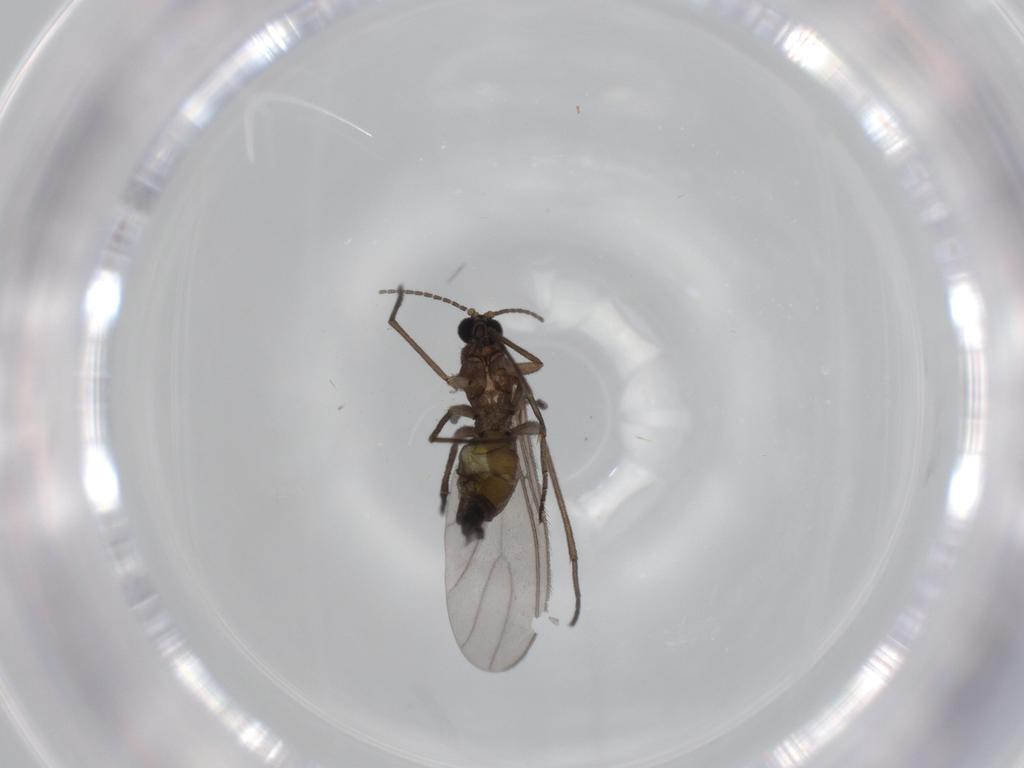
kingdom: Animalia
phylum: Arthropoda
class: Insecta
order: Diptera
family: Sciaridae
